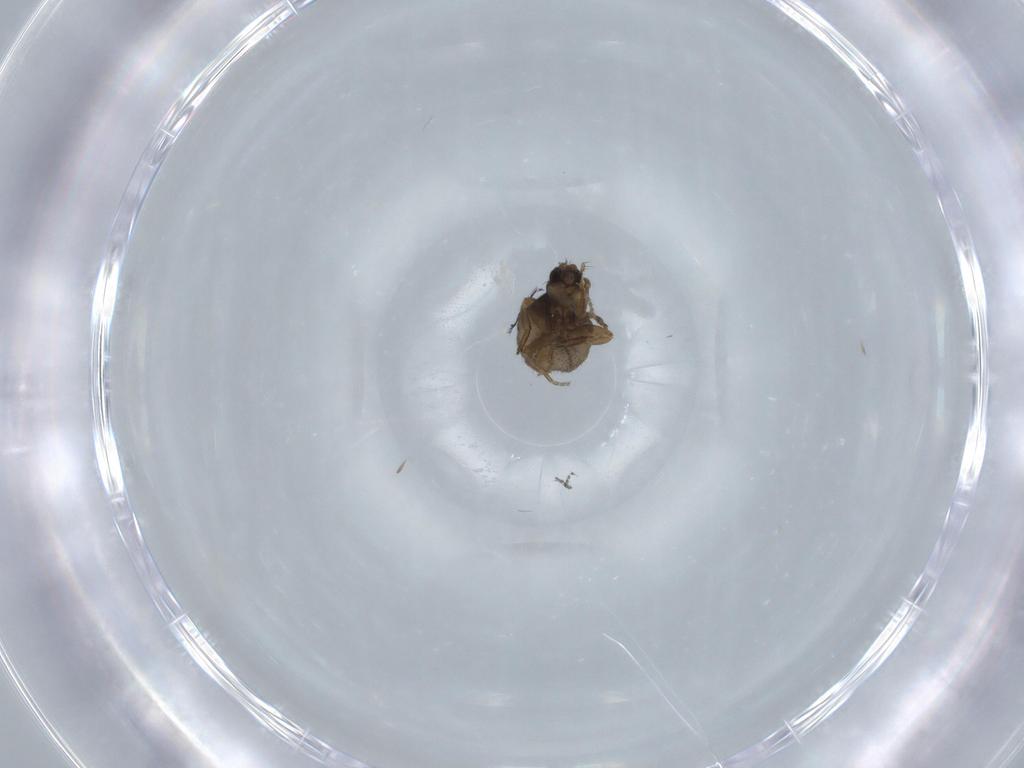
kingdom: Animalia
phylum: Arthropoda
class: Insecta
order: Diptera
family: Phoridae
